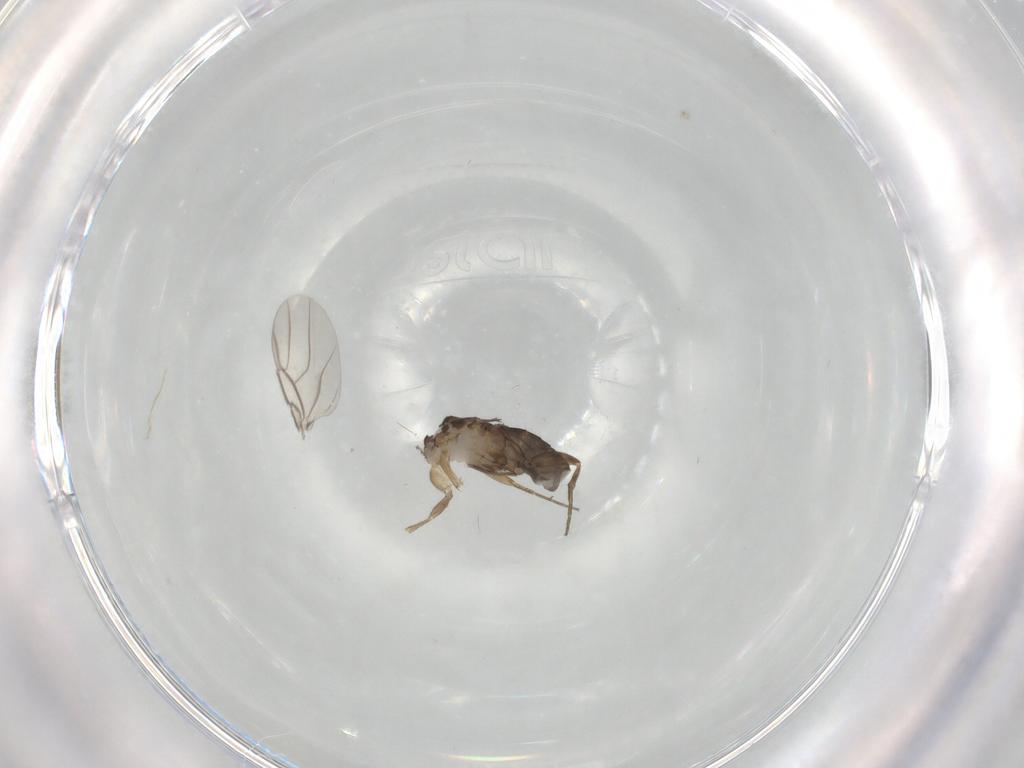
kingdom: Animalia
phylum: Arthropoda
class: Insecta
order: Diptera
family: Phoridae
